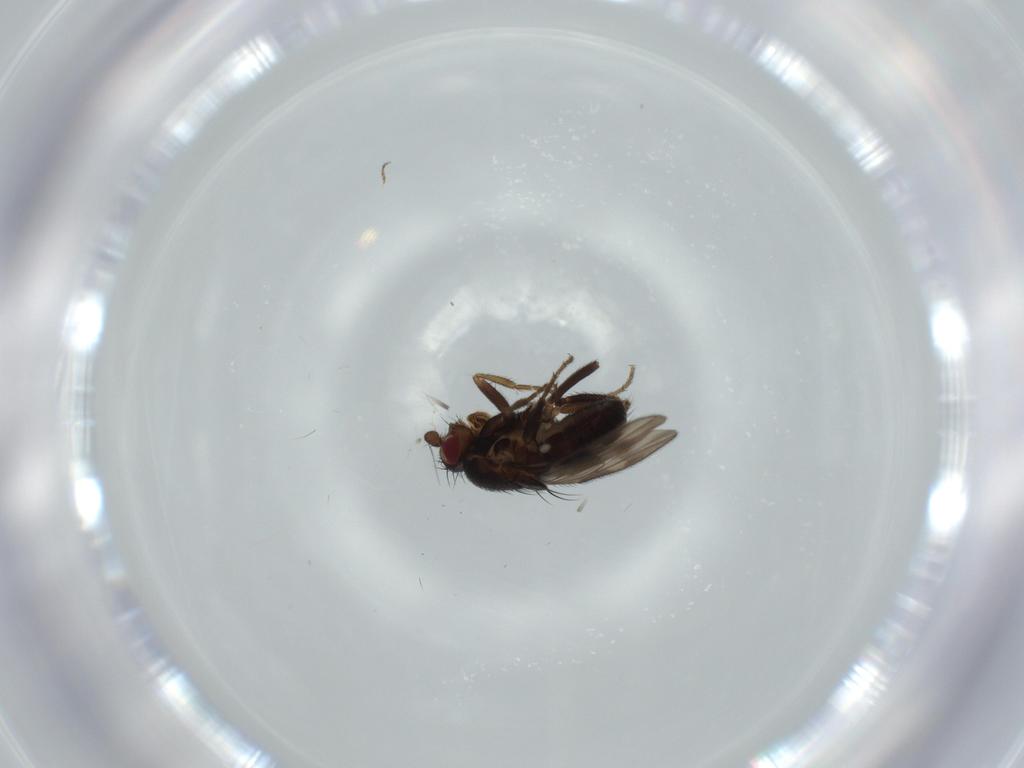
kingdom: Animalia
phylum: Arthropoda
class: Insecta
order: Diptera
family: Sphaeroceridae
